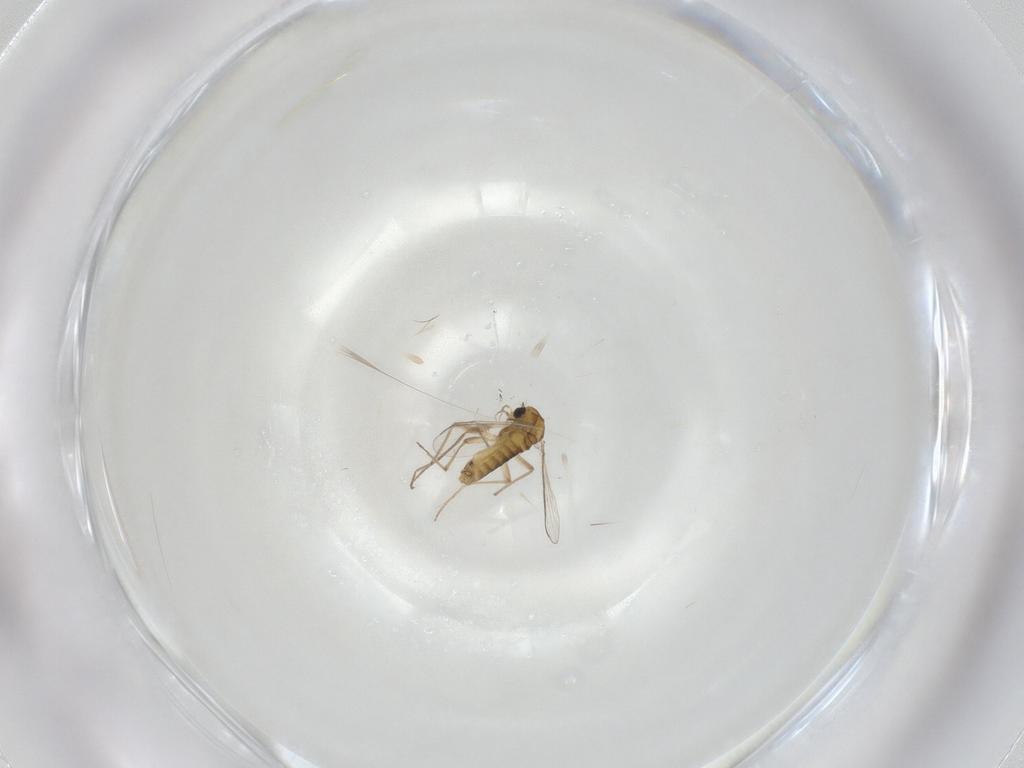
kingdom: Animalia
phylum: Arthropoda
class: Insecta
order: Diptera
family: Chironomidae
